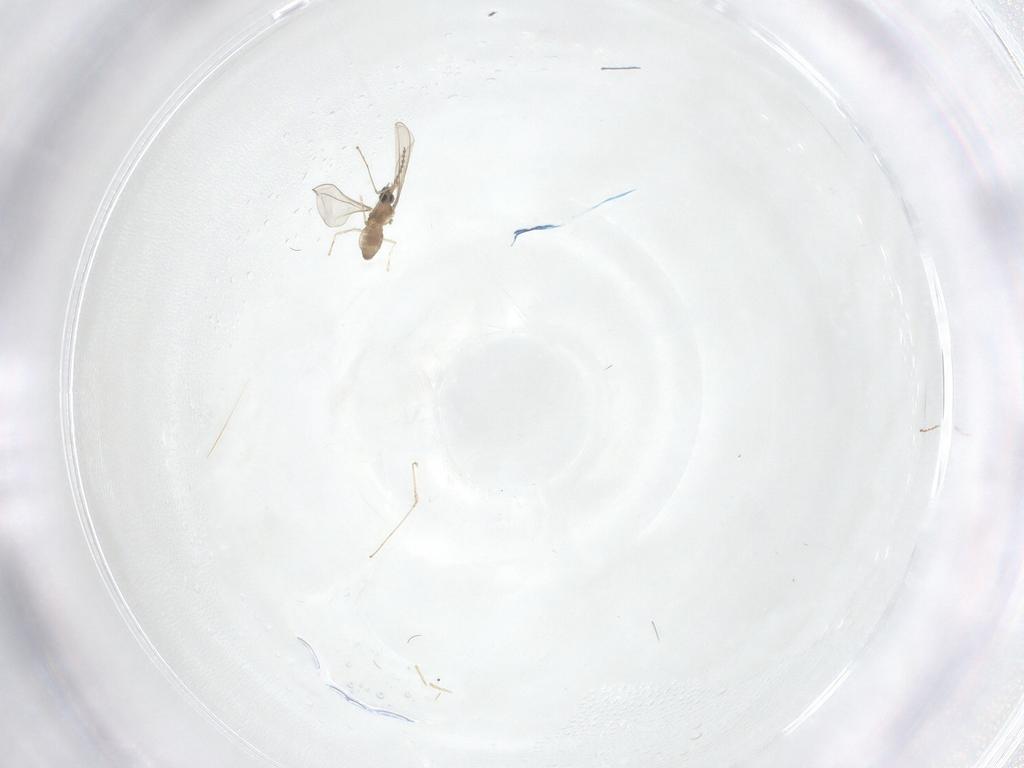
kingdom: Animalia
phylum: Arthropoda
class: Insecta
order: Diptera
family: Cecidomyiidae
